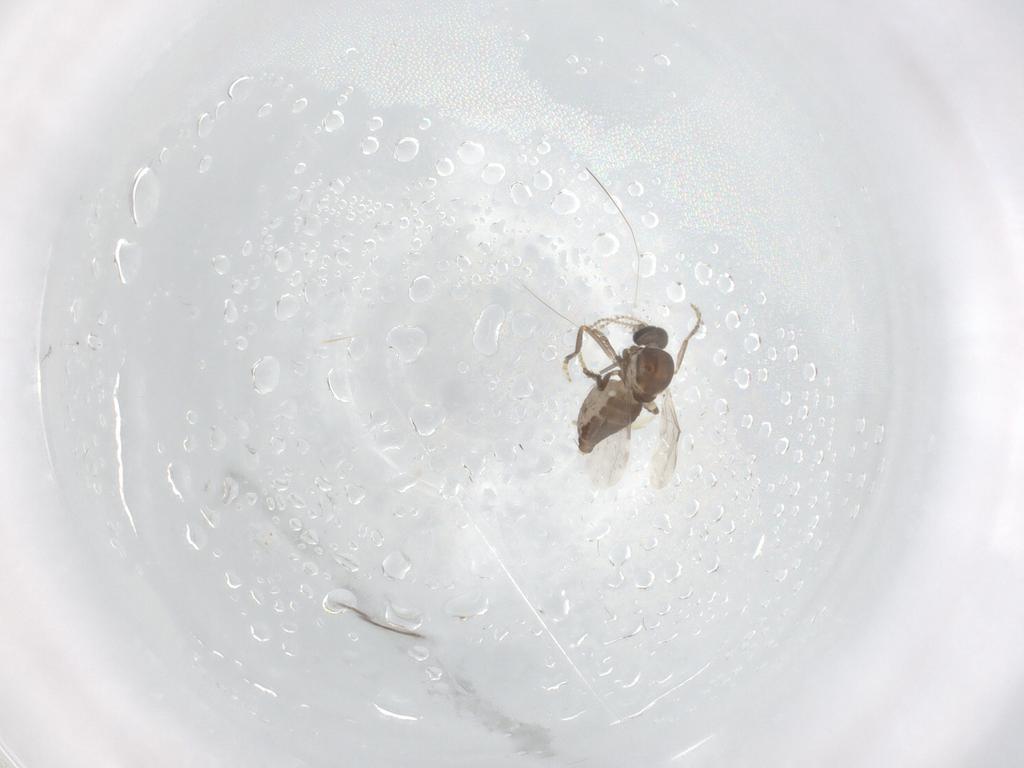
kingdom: Animalia
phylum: Arthropoda
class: Insecta
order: Diptera
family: Ceratopogonidae
